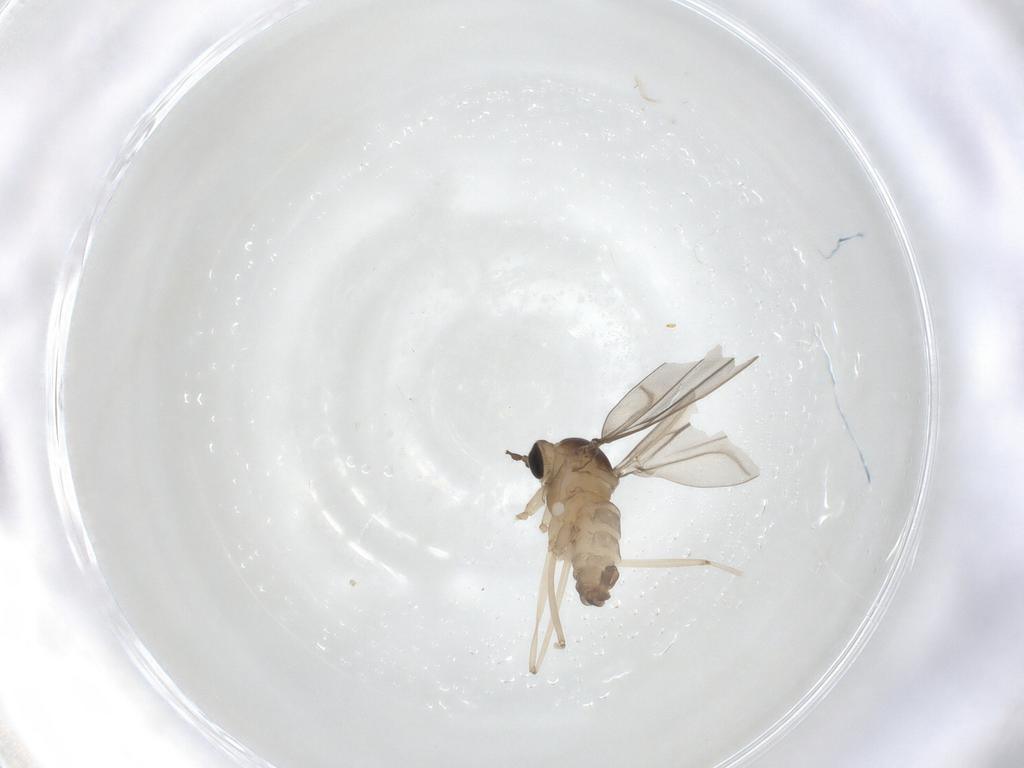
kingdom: Animalia
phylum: Arthropoda
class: Insecta
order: Diptera
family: Cecidomyiidae
